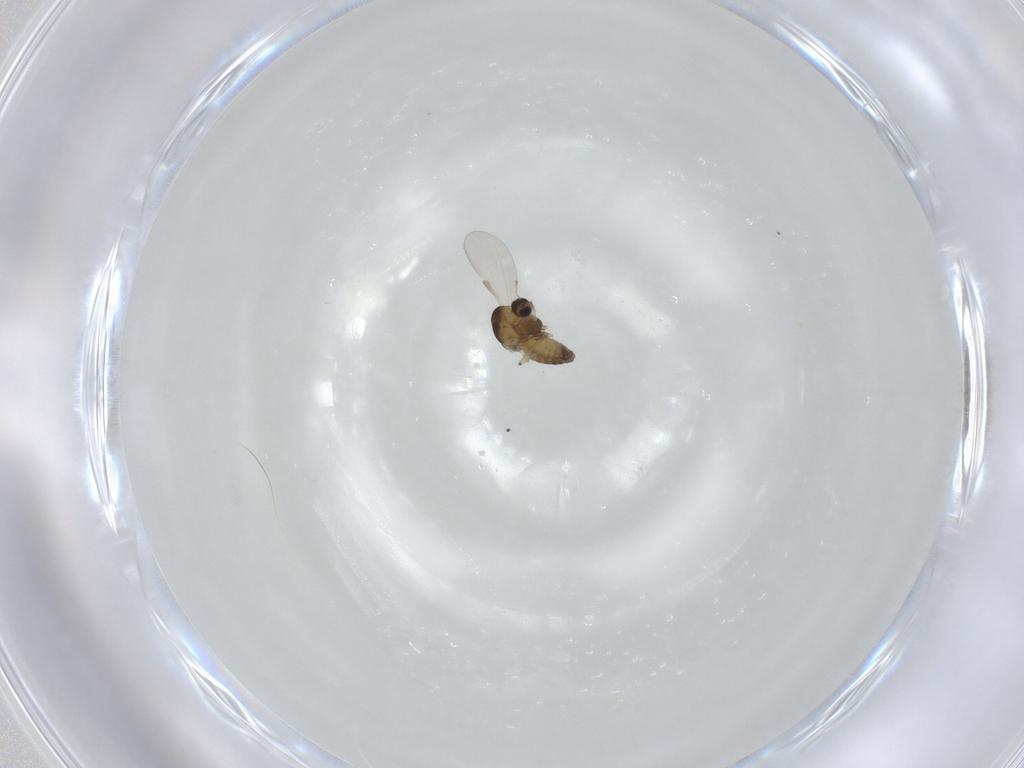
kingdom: Animalia
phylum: Arthropoda
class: Insecta
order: Diptera
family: Chironomidae
